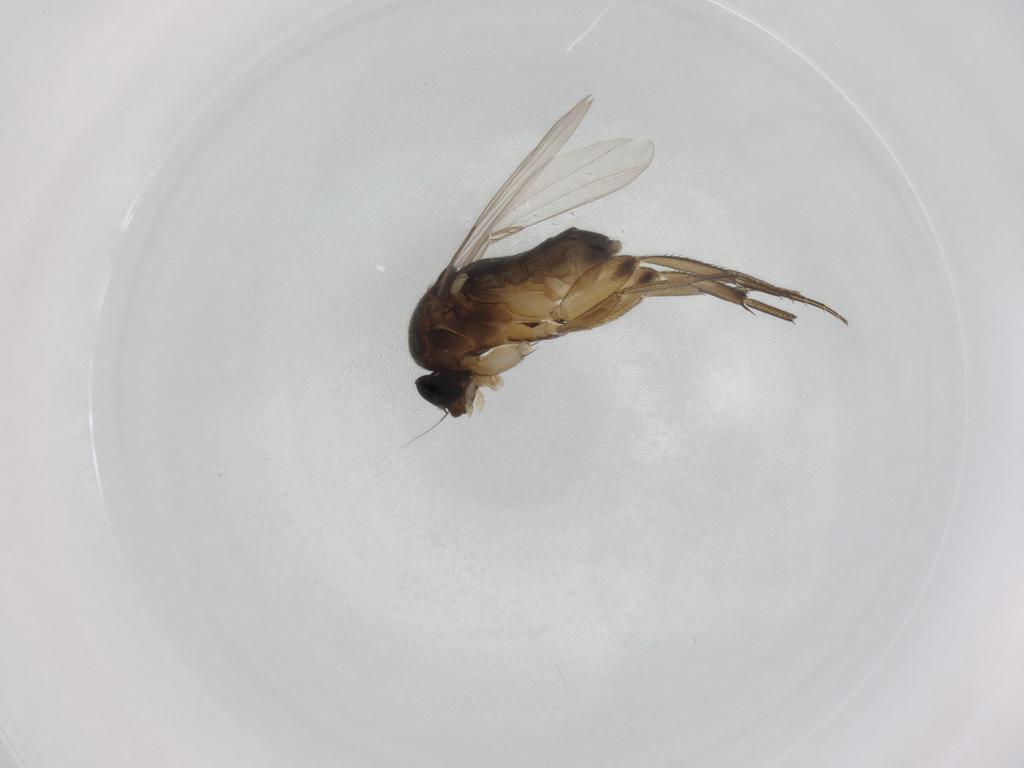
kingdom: Animalia
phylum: Arthropoda
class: Insecta
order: Diptera
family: Phoridae
